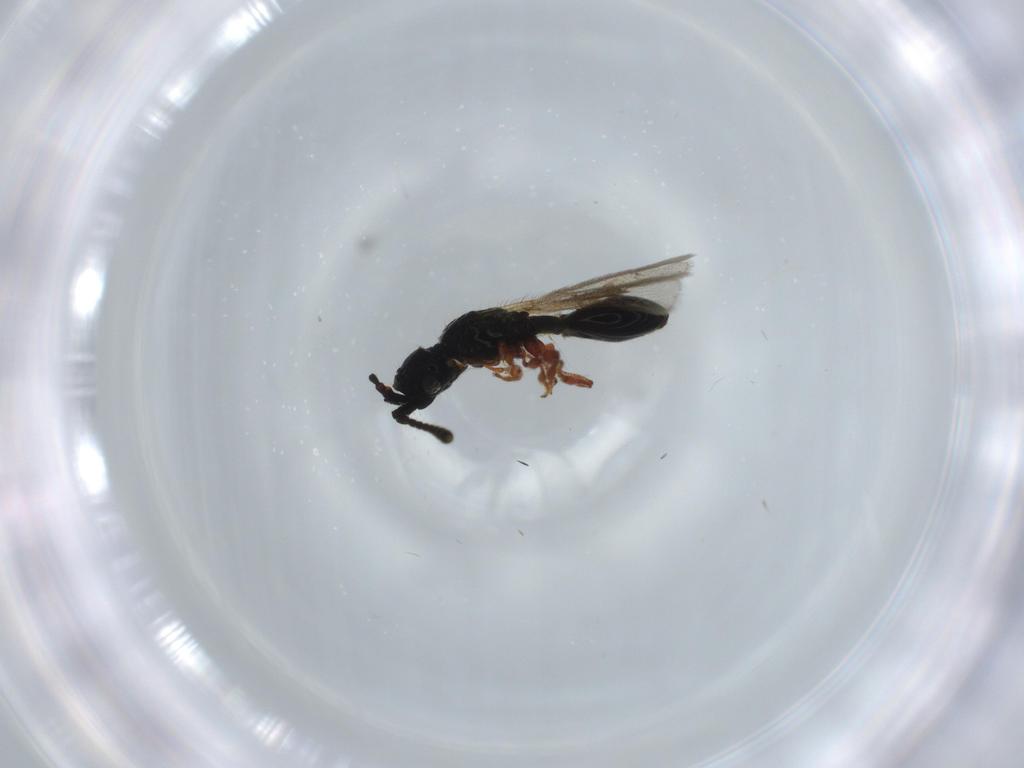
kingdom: Animalia
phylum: Arthropoda
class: Insecta
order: Hymenoptera
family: Diapriidae
